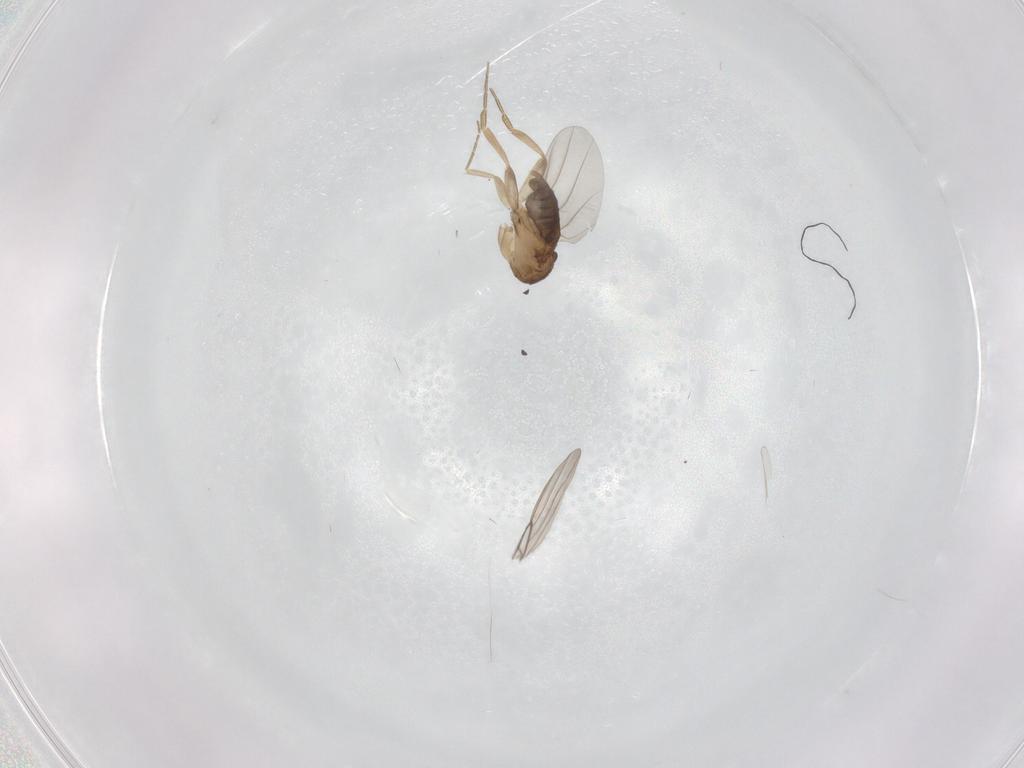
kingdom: Animalia
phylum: Arthropoda
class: Insecta
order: Diptera
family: Phoridae
